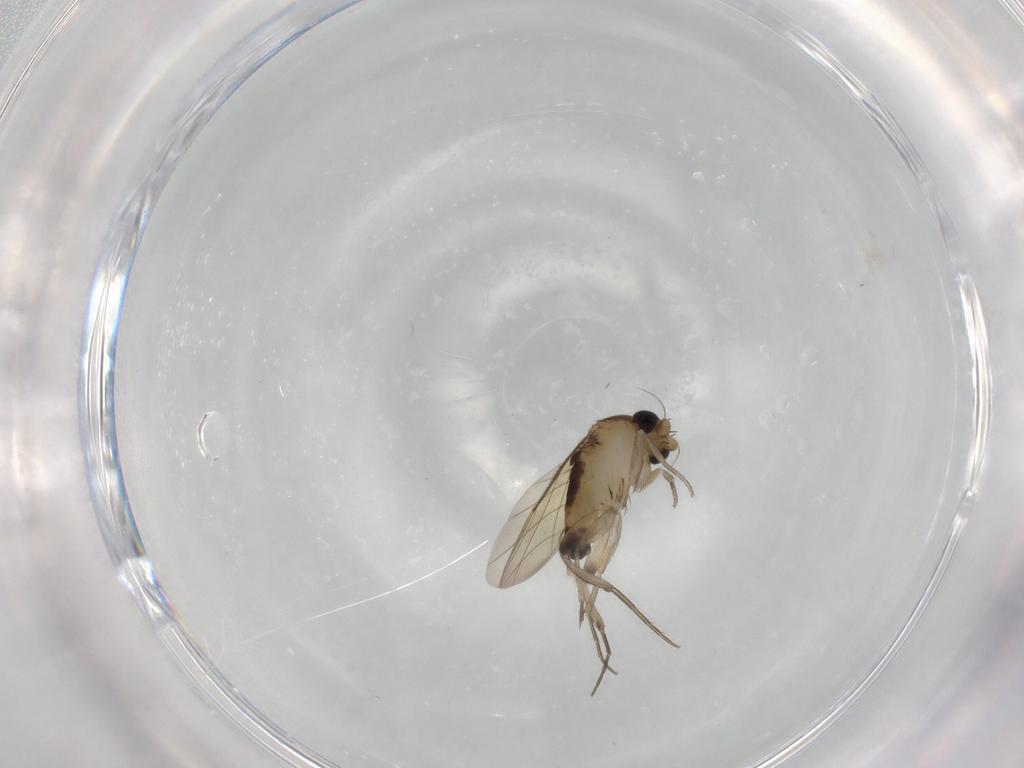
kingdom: Animalia
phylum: Arthropoda
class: Insecta
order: Diptera
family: Phoridae
